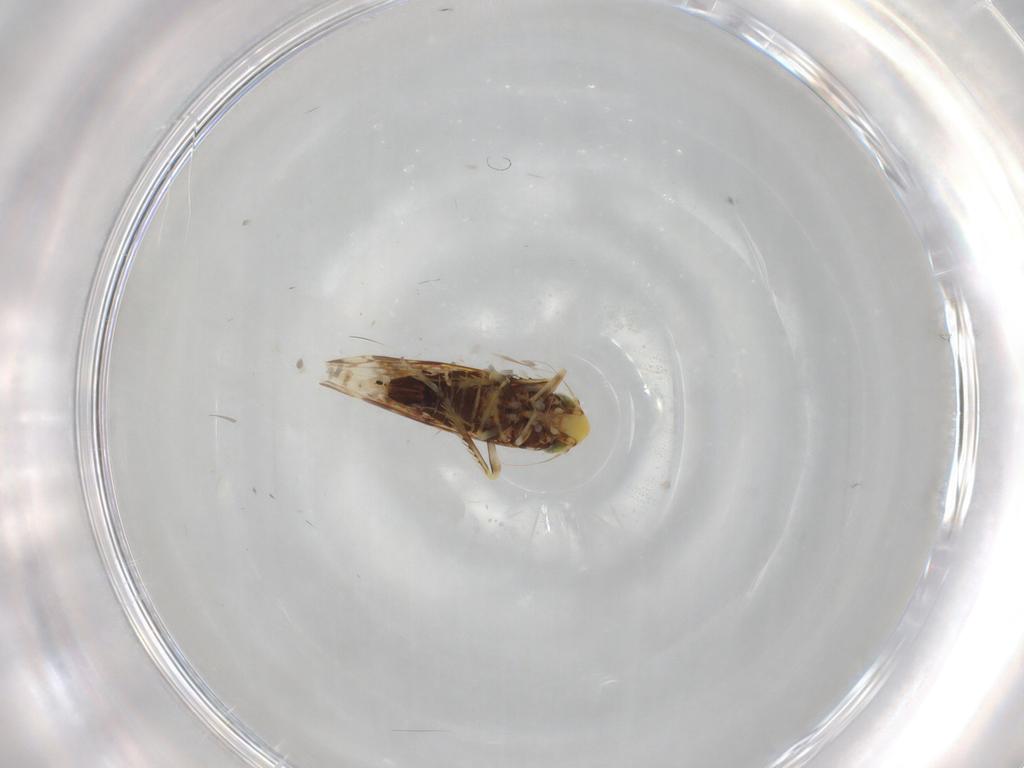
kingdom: Animalia
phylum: Arthropoda
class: Insecta
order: Hemiptera
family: Cicadellidae
